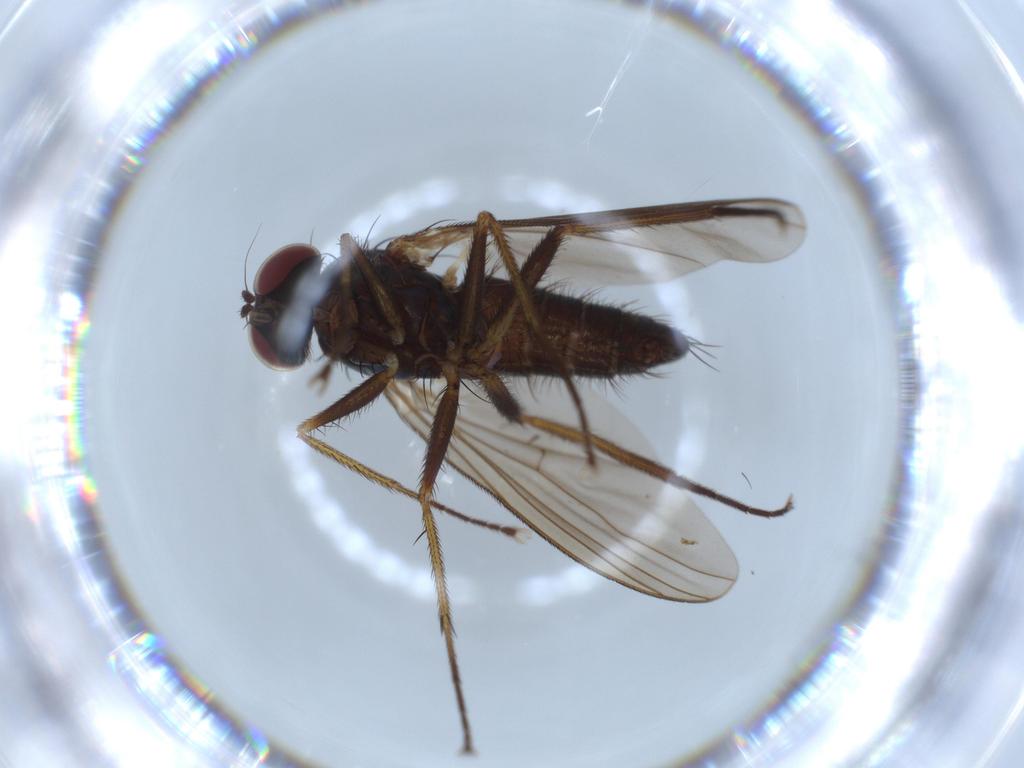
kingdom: Animalia
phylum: Arthropoda
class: Insecta
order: Diptera
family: Dolichopodidae
